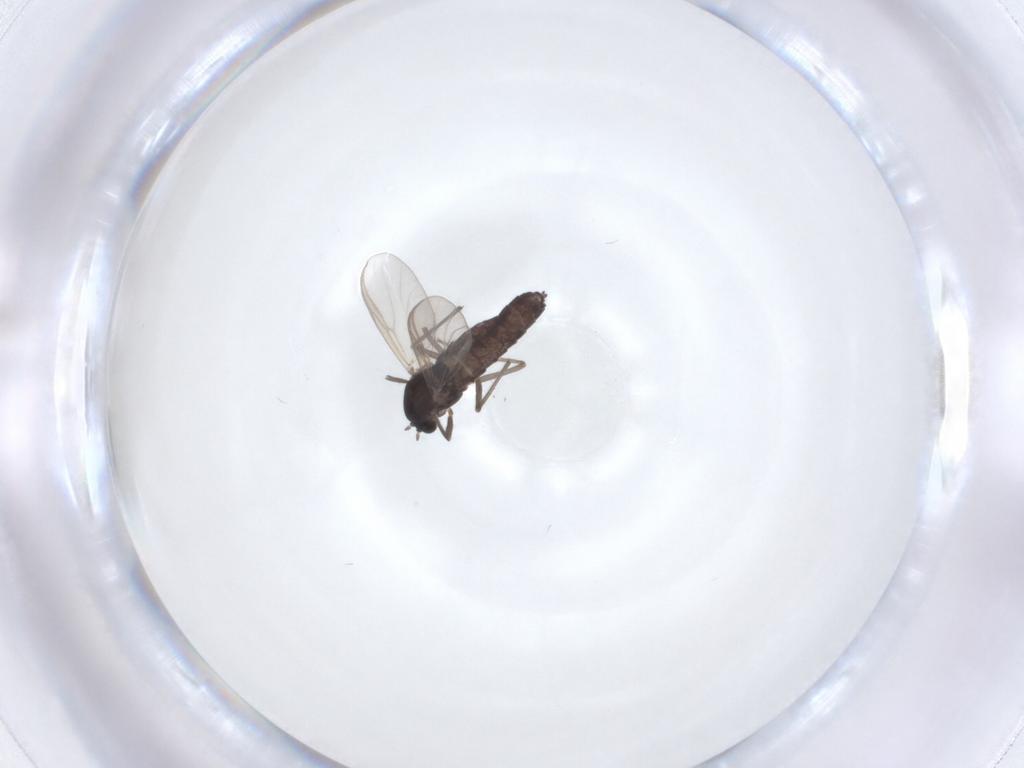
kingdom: Animalia
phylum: Arthropoda
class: Insecta
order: Diptera
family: Chironomidae
